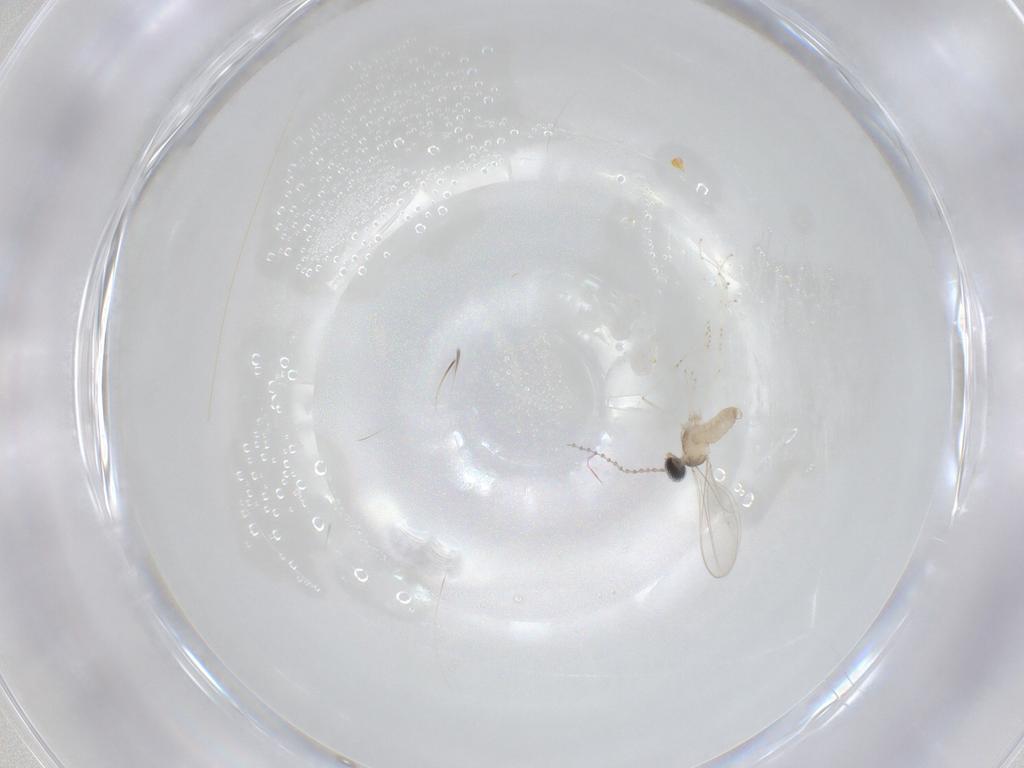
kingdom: Animalia
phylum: Arthropoda
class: Insecta
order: Diptera
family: Cecidomyiidae
